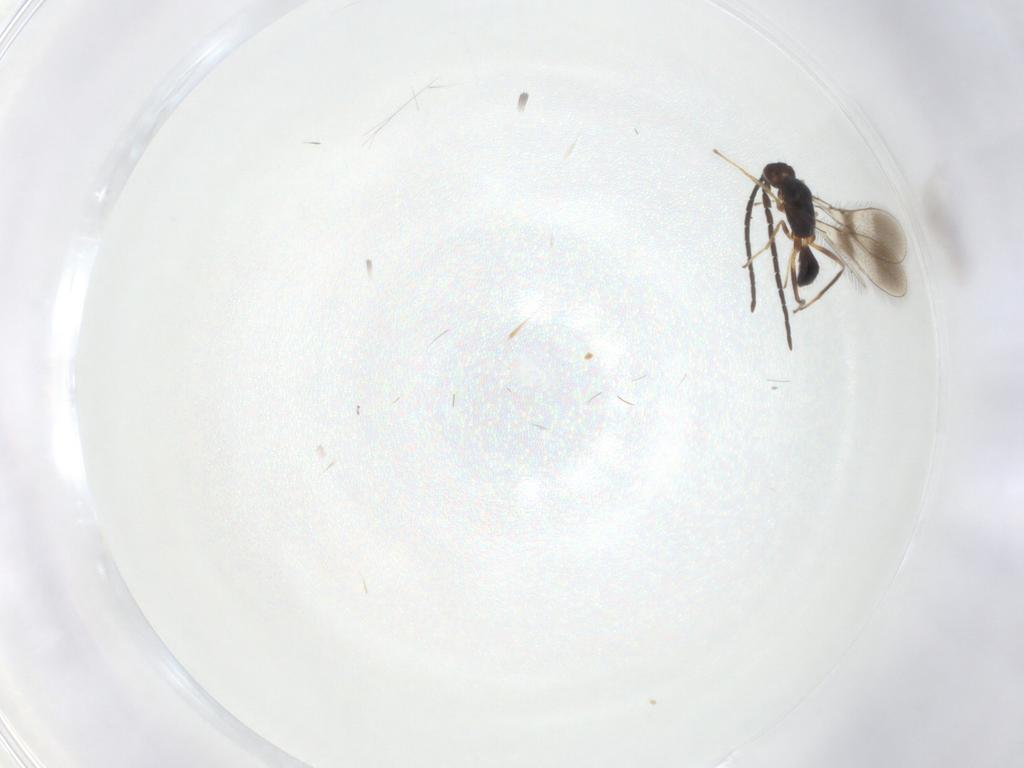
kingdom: Animalia
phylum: Arthropoda
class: Insecta
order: Hymenoptera
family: Mymaridae
